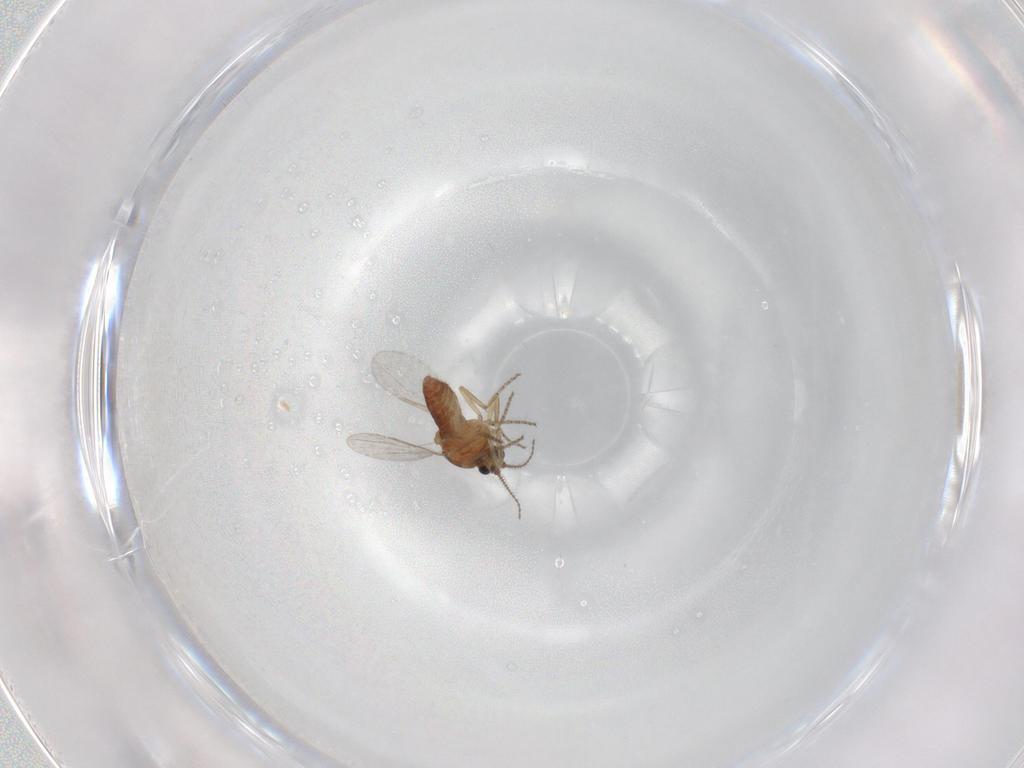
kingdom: Animalia
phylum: Arthropoda
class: Insecta
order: Diptera
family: Ceratopogonidae
